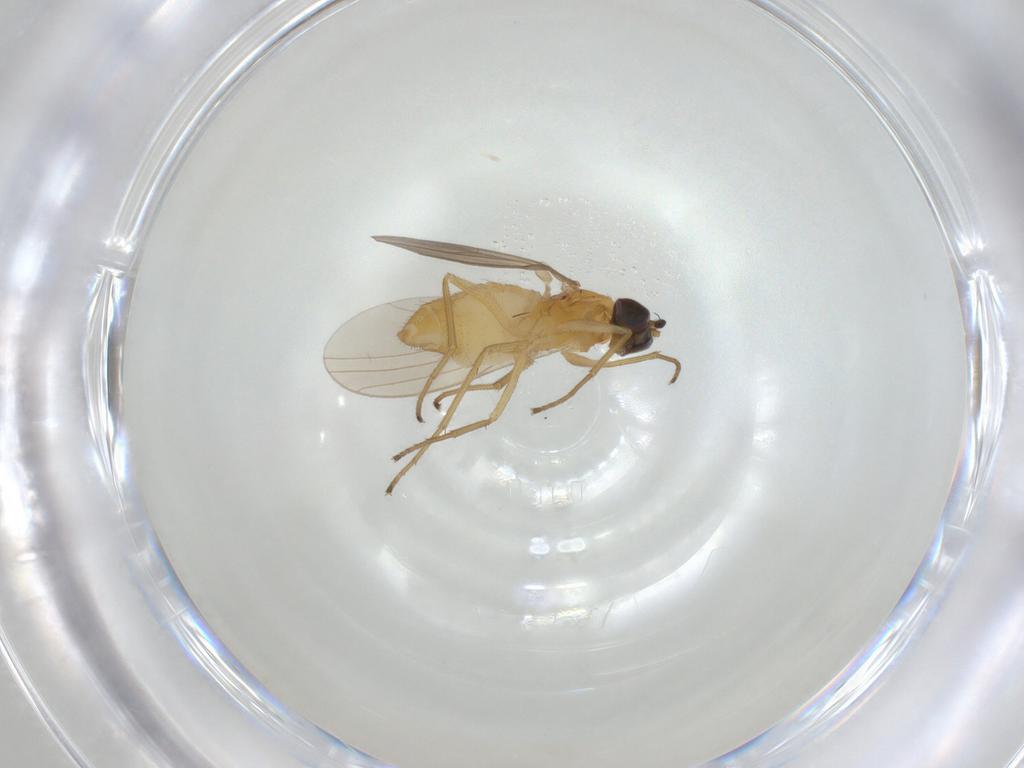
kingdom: Animalia
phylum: Arthropoda
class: Insecta
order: Diptera
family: Dolichopodidae
